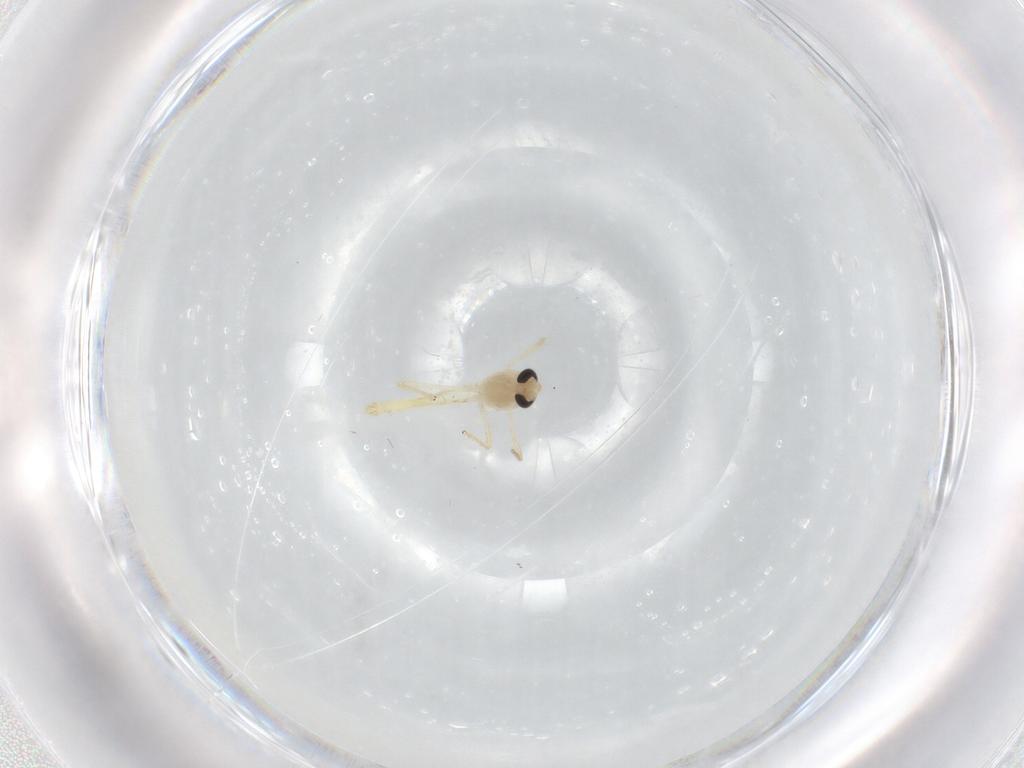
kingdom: Animalia
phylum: Arthropoda
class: Insecta
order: Diptera
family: Chironomidae
